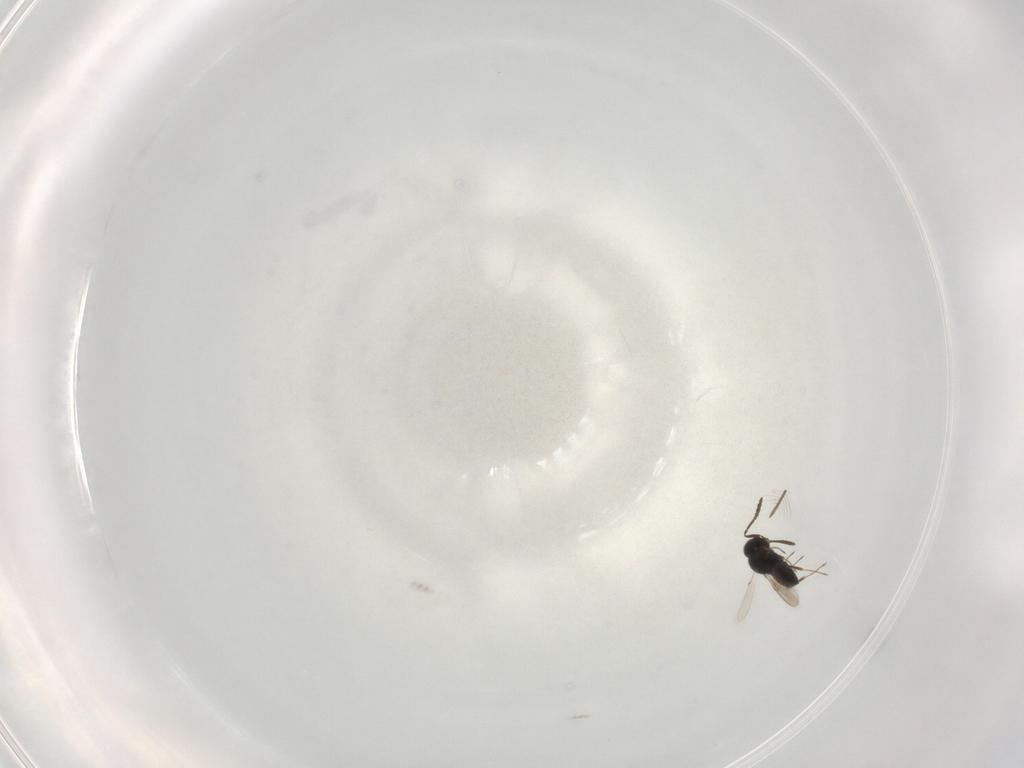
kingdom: Animalia
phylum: Arthropoda
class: Insecta
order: Hymenoptera
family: Scelionidae
